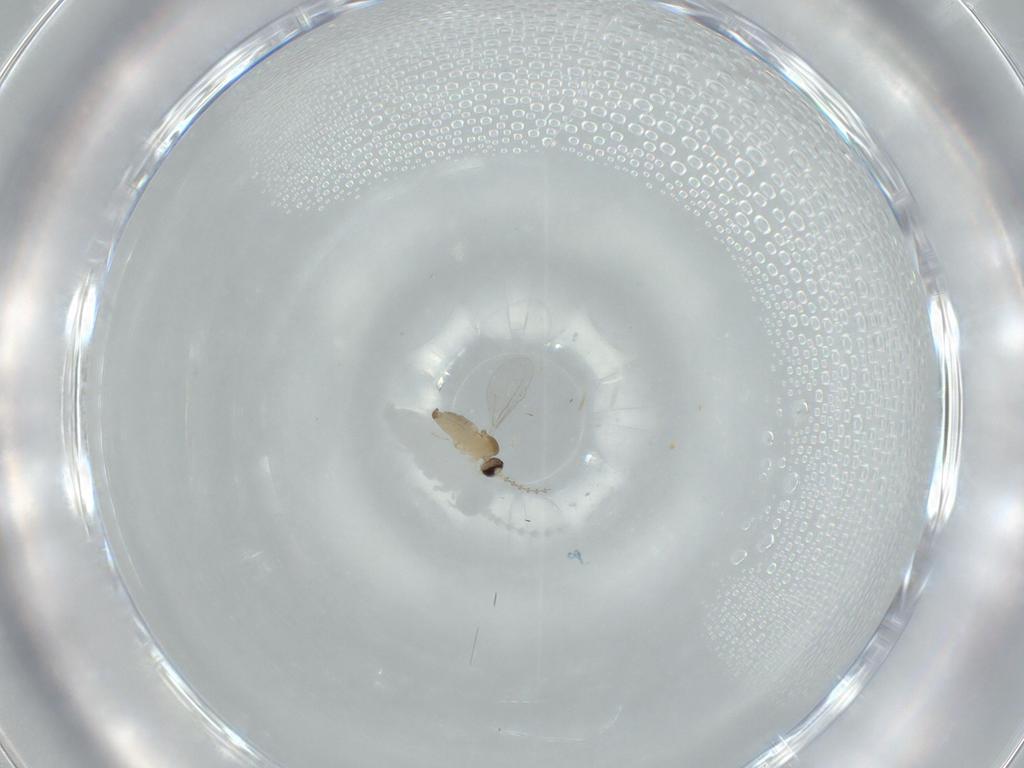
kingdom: Animalia
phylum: Arthropoda
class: Insecta
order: Diptera
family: Cecidomyiidae
